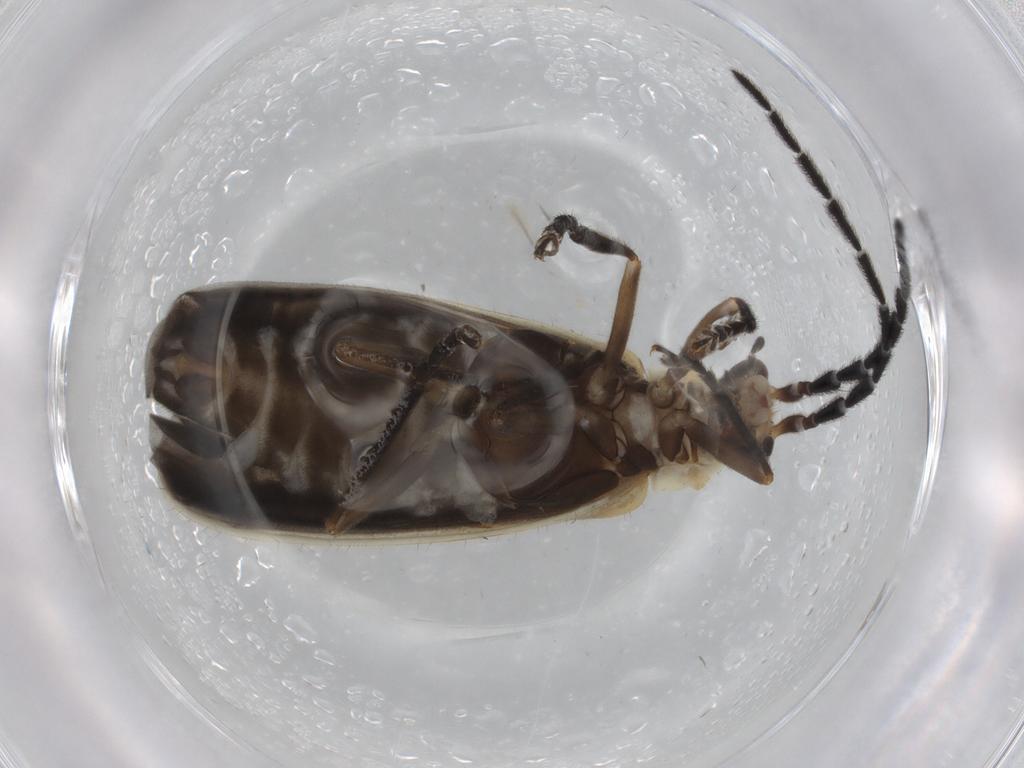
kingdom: Animalia
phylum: Arthropoda
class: Insecta
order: Coleoptera
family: Cantharidae
